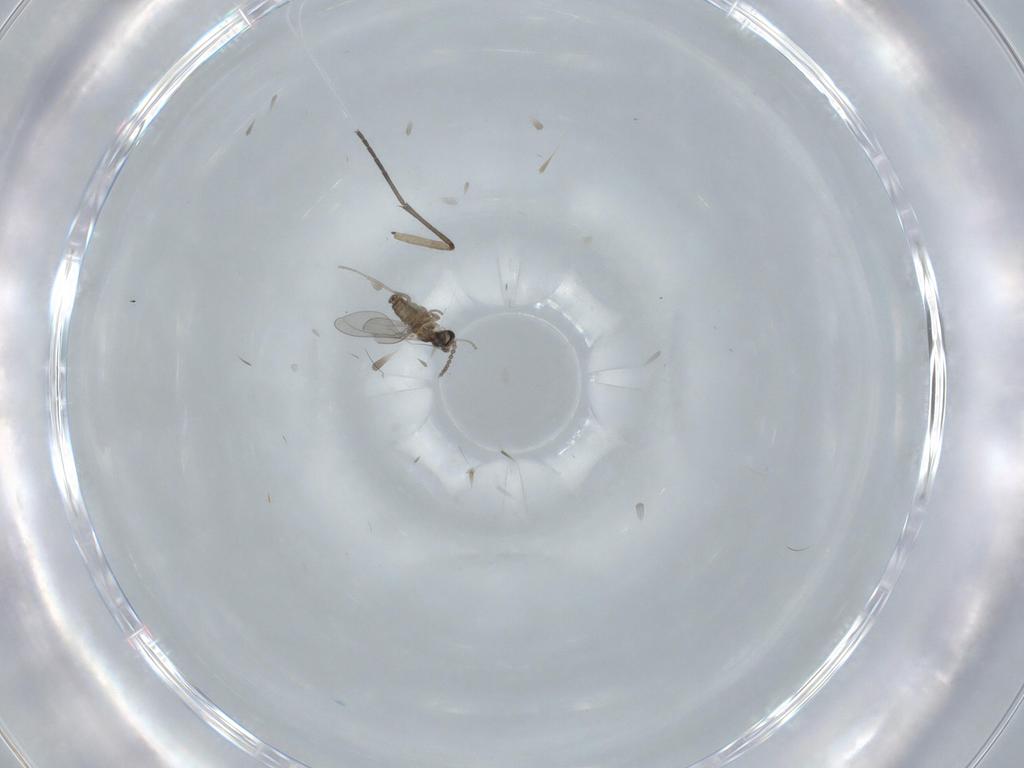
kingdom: Animalia
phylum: Arthropoda
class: Insecta
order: Diptera
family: Cecidomyiidae
